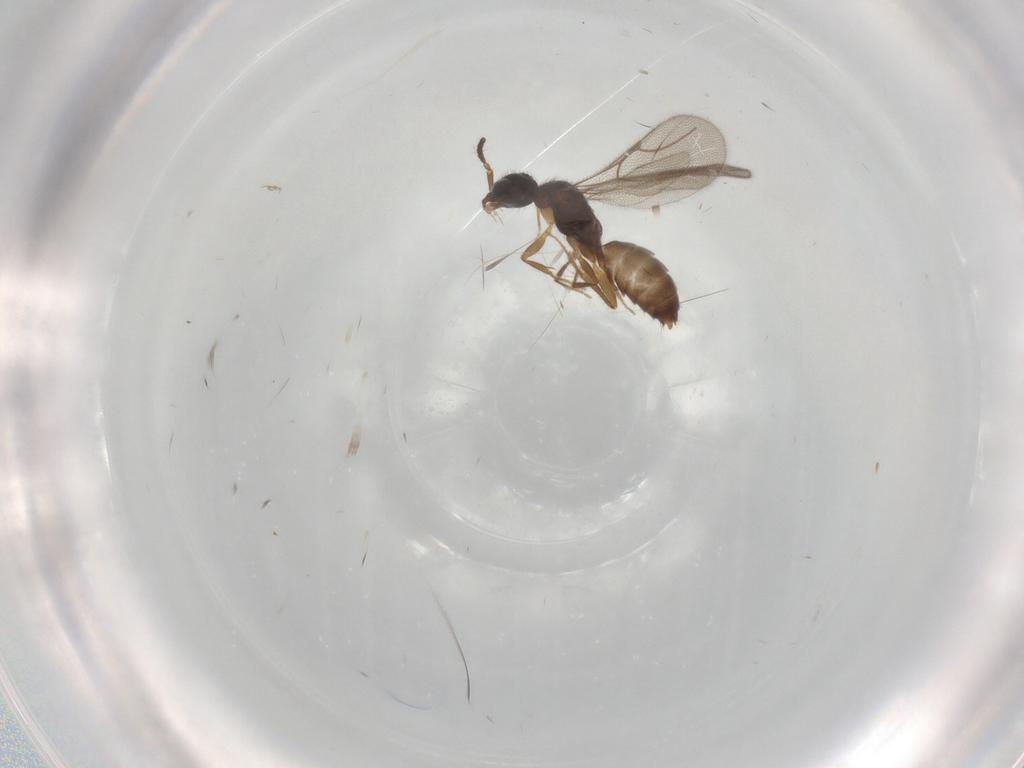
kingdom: Animalia
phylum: Arthropoda
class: Insecta
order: Hymenoptera
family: Bethylidae
